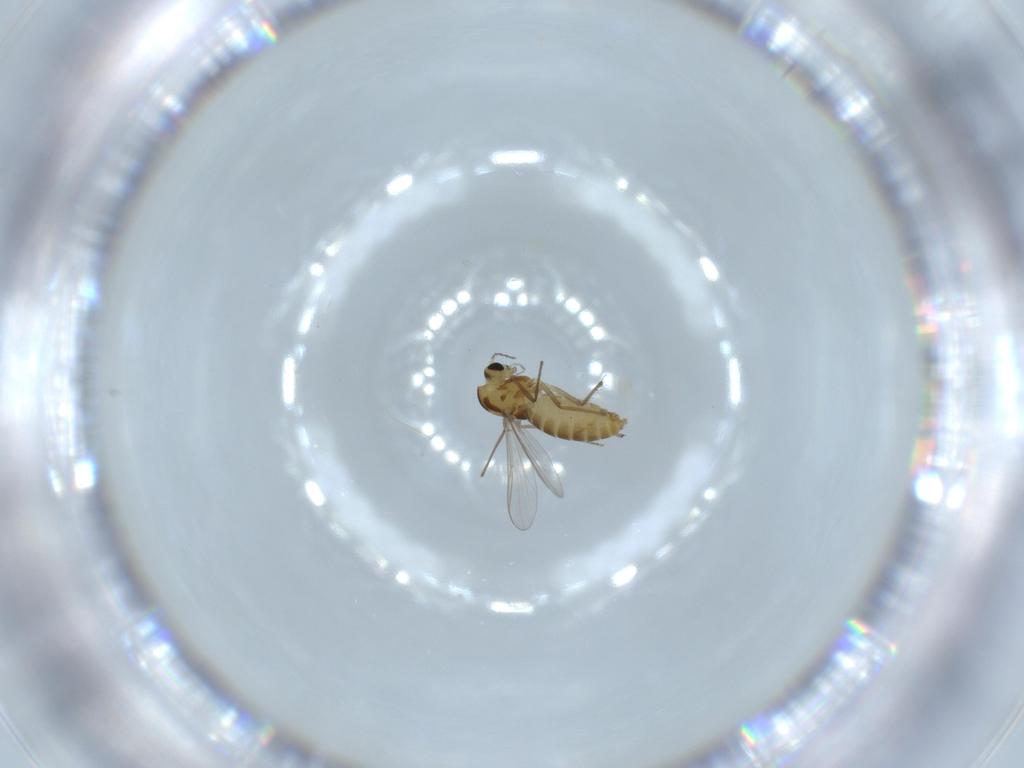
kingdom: Animalia
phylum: Arthropoda
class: Insecta
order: Diptera
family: Chironomidae
